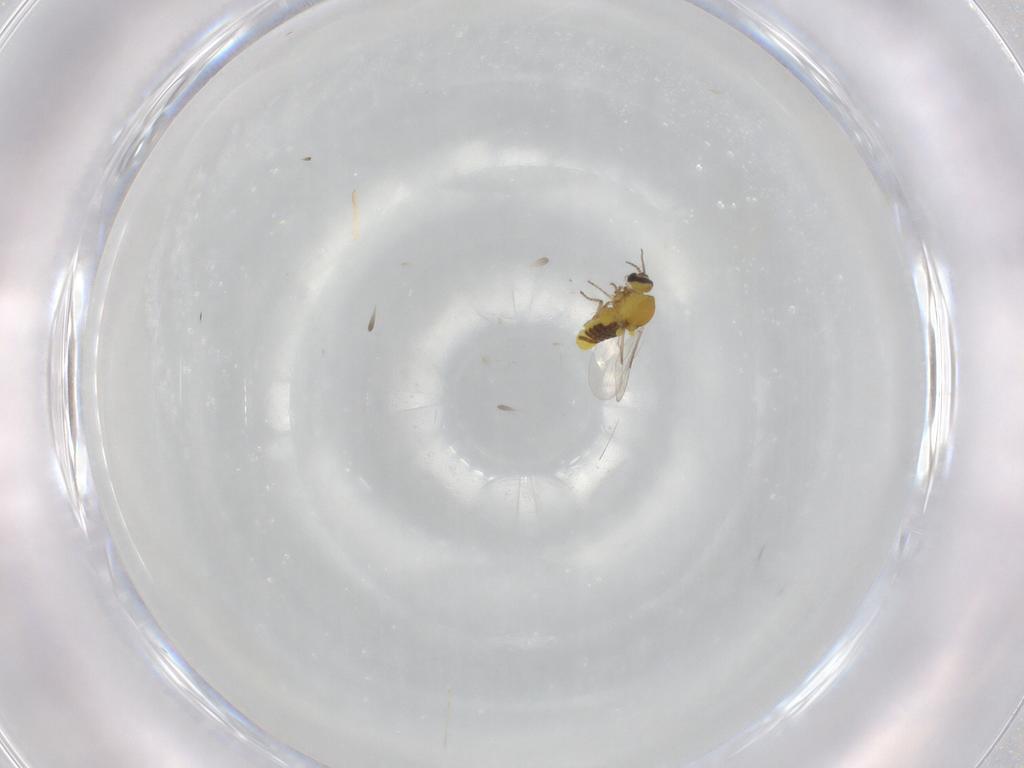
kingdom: Animalia
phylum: Arthropoda
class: Insecta
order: Diptera
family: Ceratopogonidae
